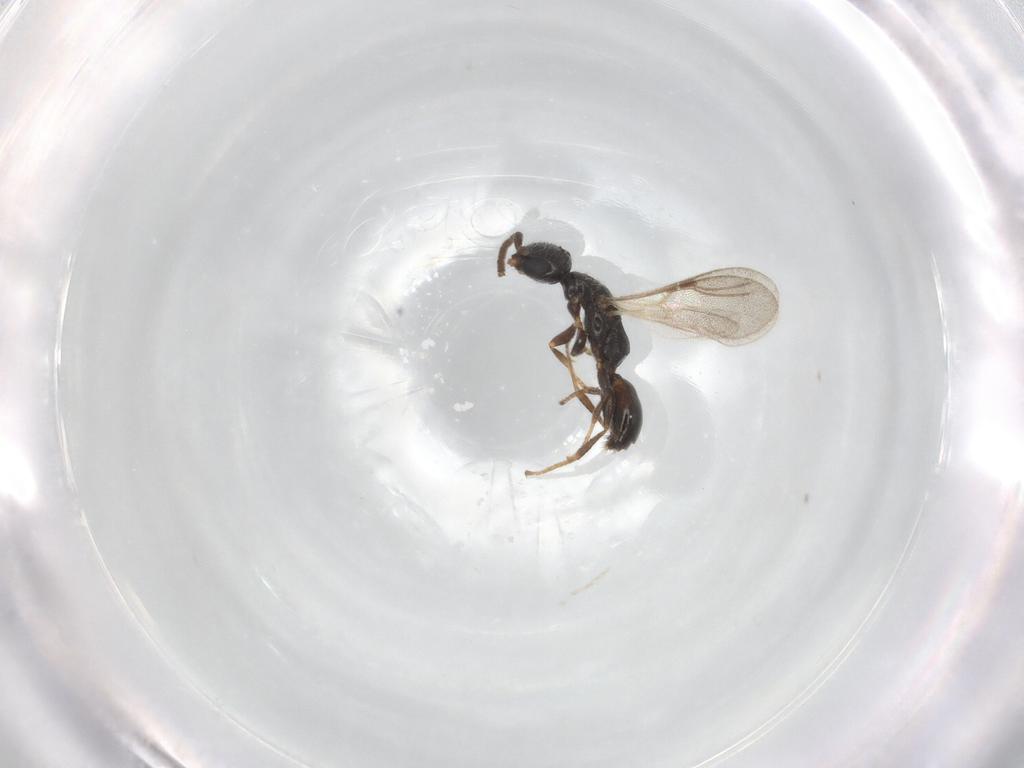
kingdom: Animalia
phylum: Arthropoda
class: Insecta
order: Hymenoptera
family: Bethylidae
